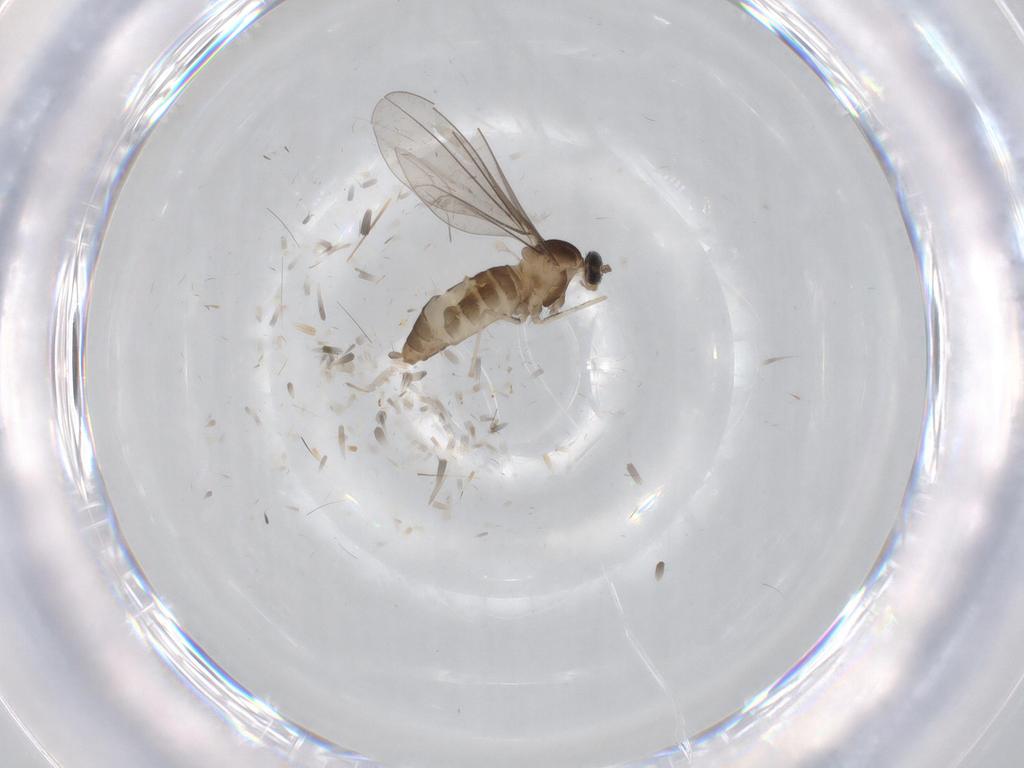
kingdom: Animalia
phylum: Arthropoda
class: Insecta
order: Diptera
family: Cecidomyiidae
